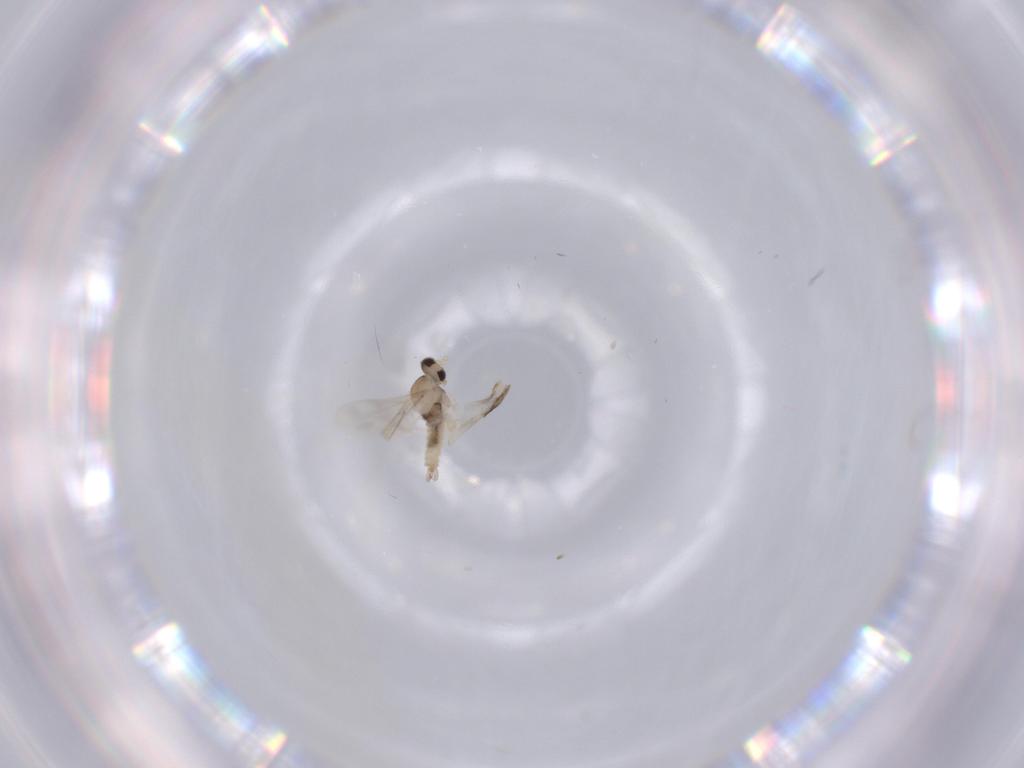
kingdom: Animalia
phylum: Arthropoda
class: Insecta
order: Diptera
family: Cecidomyiidae
